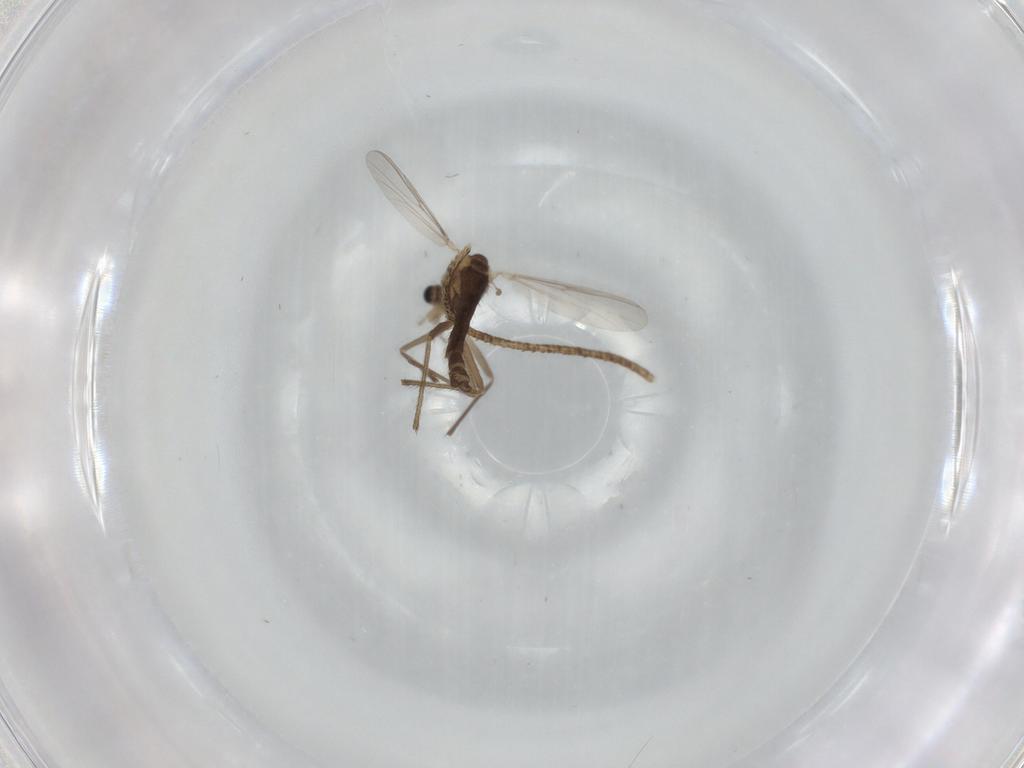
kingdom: Animalia
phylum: Arthropoda
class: Insecta
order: Diptera
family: Chironomidae
